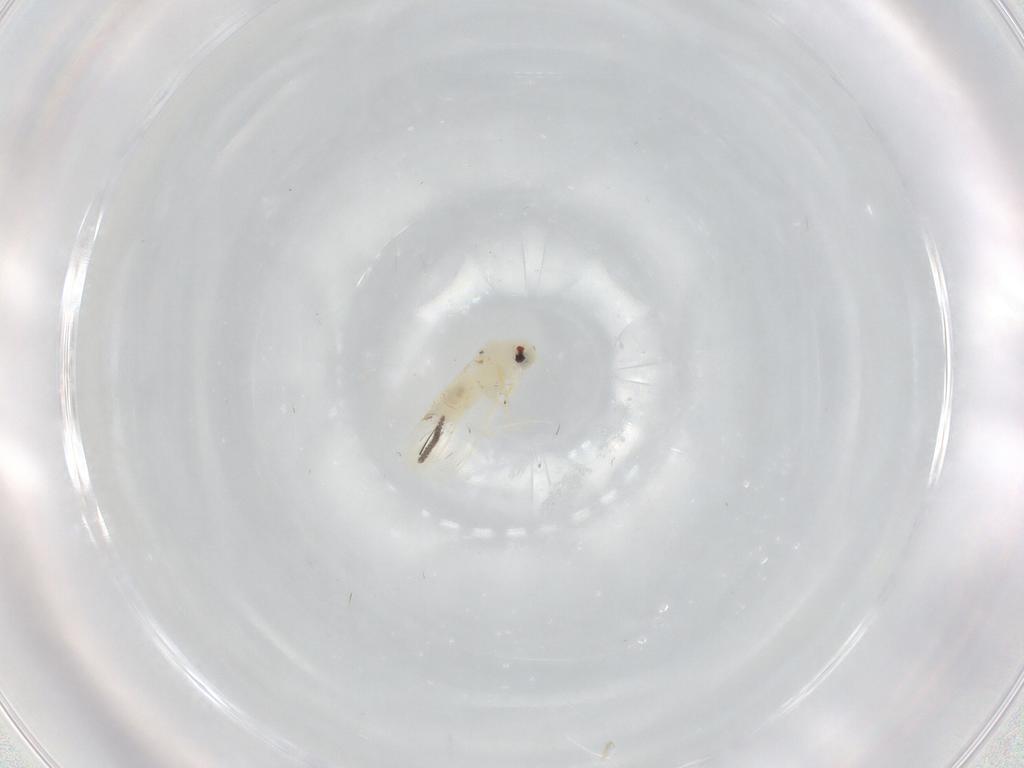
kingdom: Animalia
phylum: Arthropoda
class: Insecta
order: Hemiptera
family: Aleyrodidae
